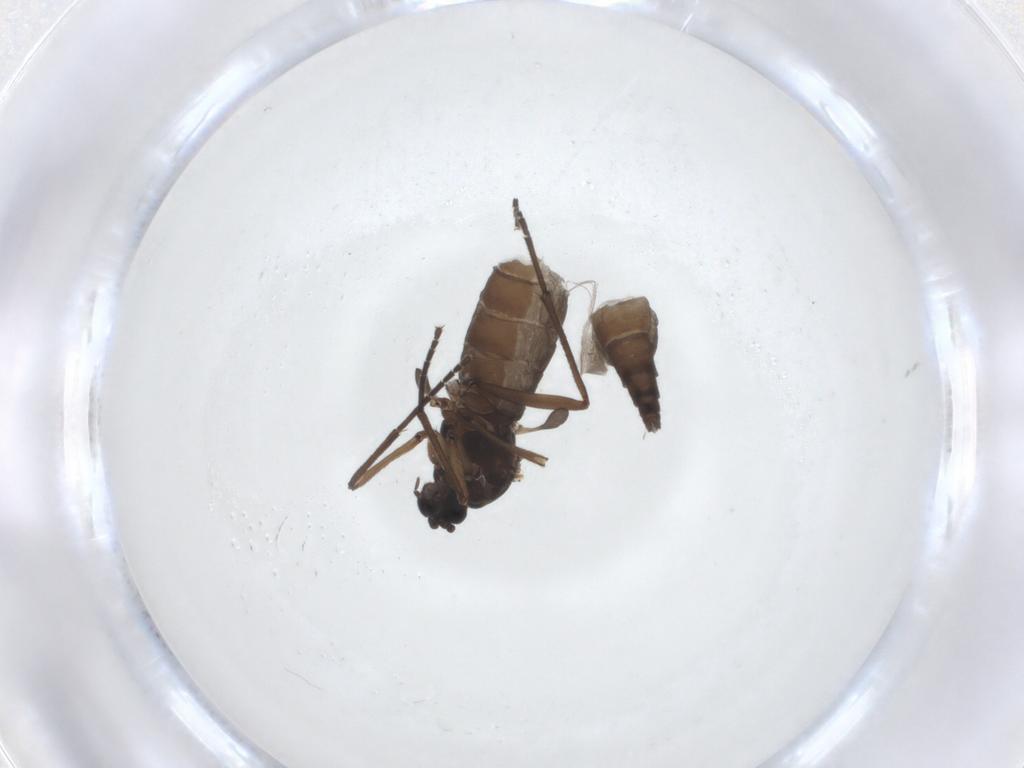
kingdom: Animalia
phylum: Arthropoda
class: Insecta
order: Diptera
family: Sciaridae
